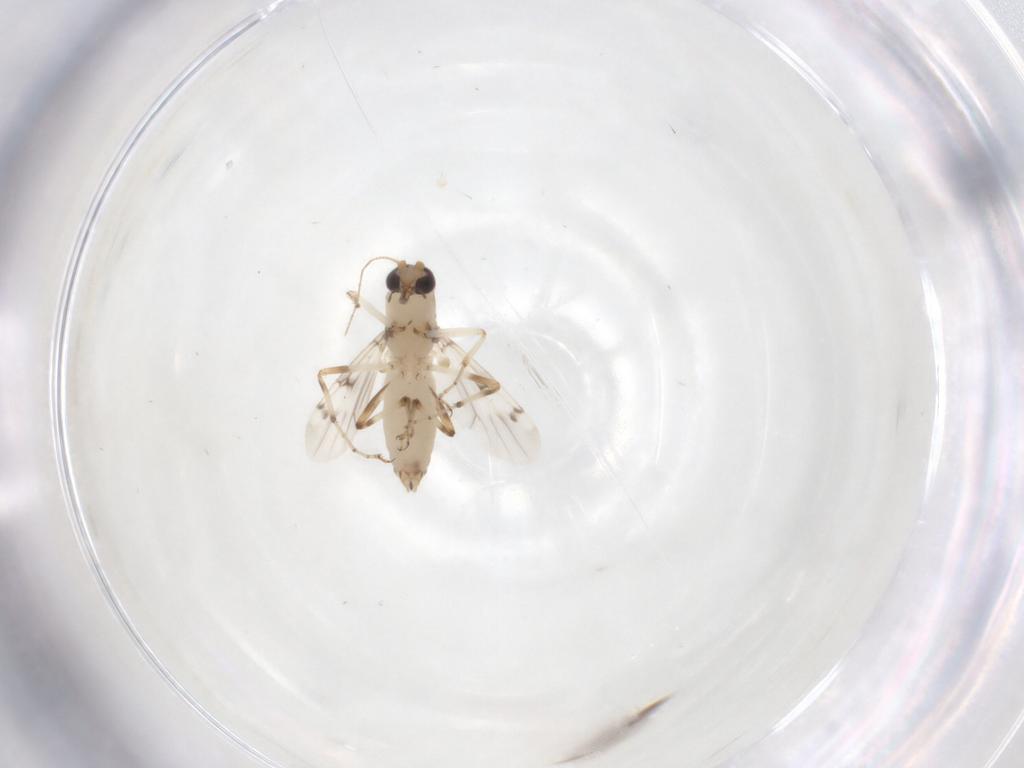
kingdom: Animalia
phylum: Arthropoda
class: Insecta
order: Diptera
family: Ceratopogonidae
